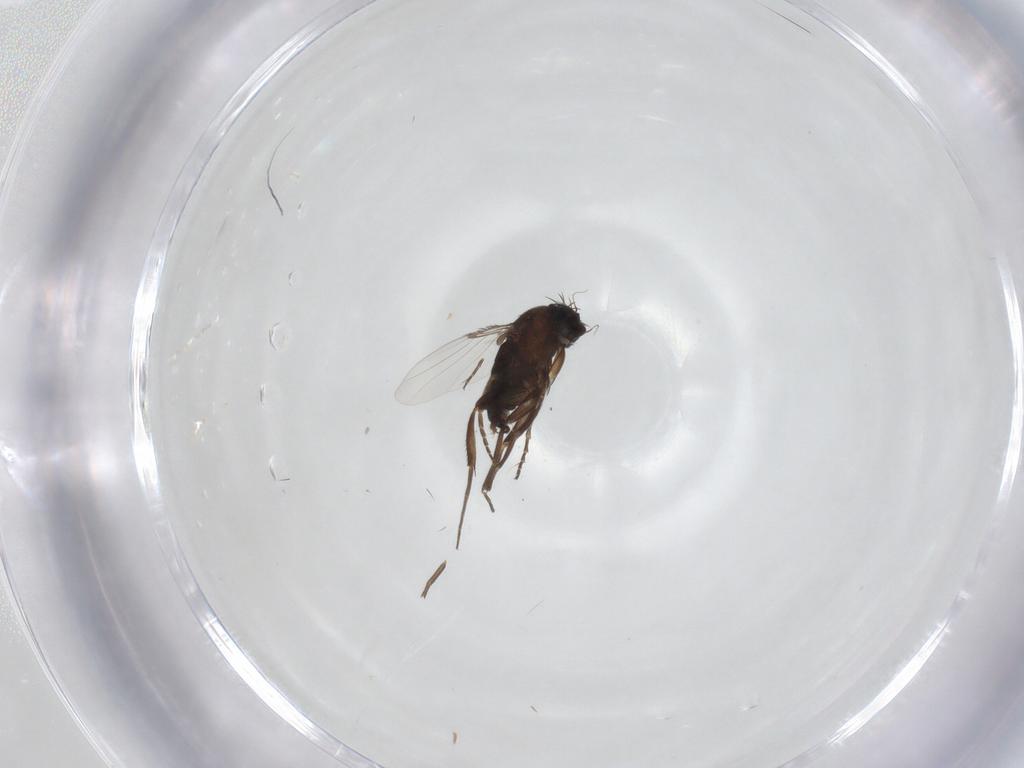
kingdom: Animalia
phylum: Arthropoda
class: Insecta
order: Diptera
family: Phoridae
